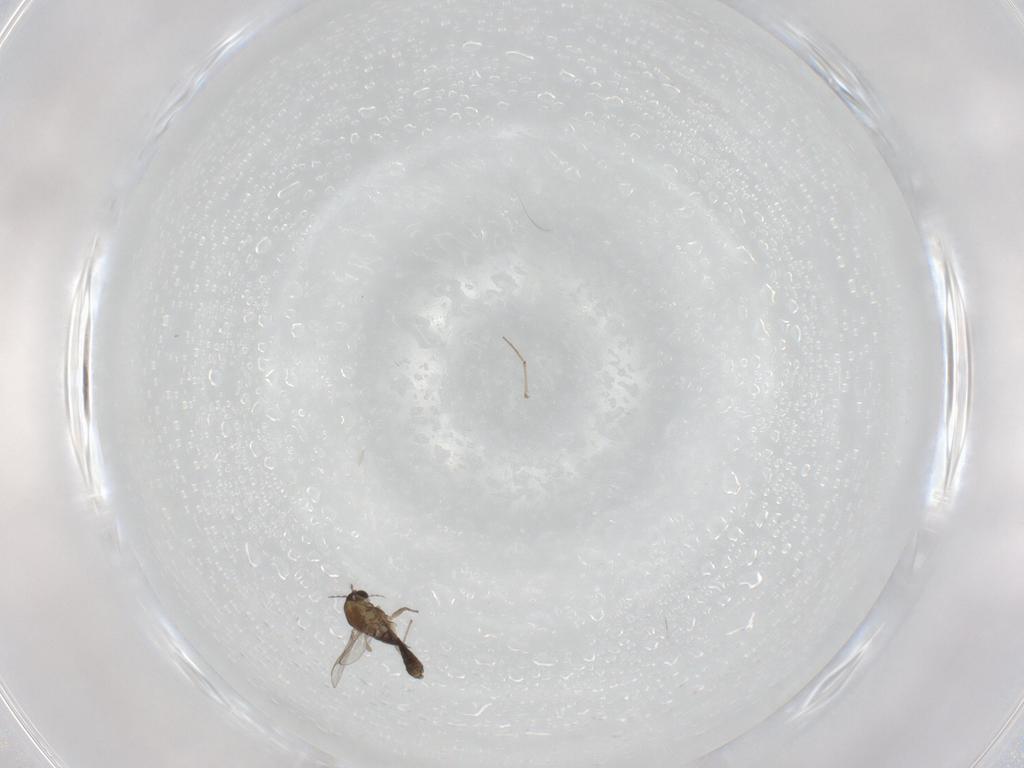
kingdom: Animalia
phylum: Arthropoda
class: Insecta
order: Diptera
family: Chironomidae
